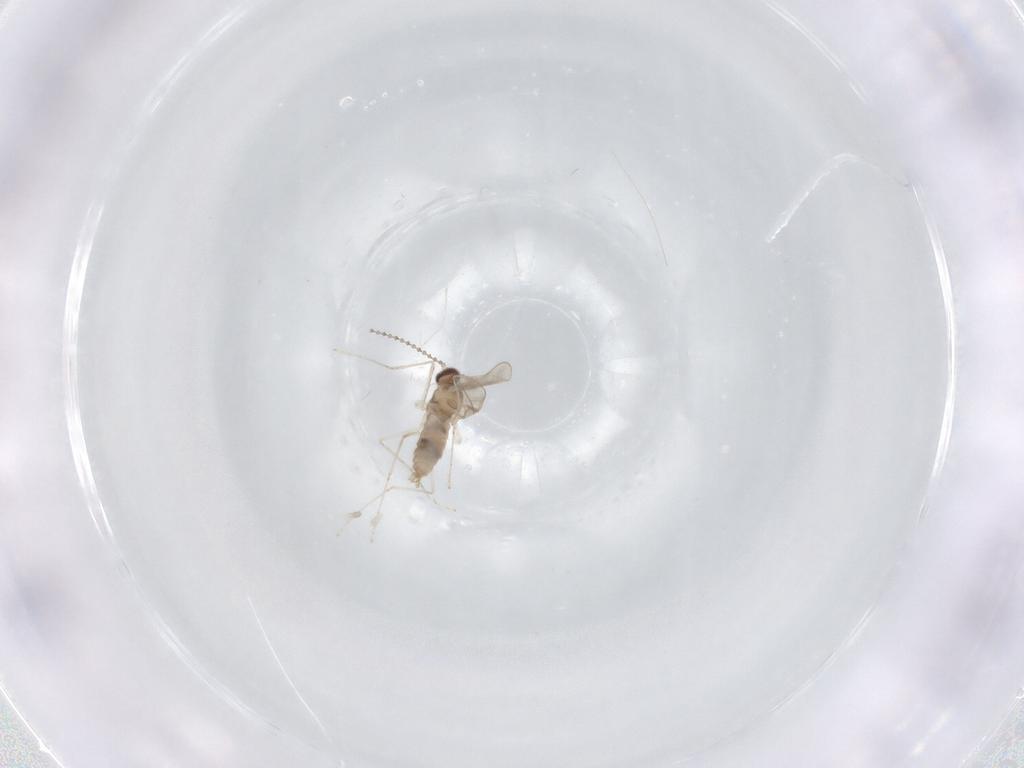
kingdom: Animalia
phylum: Arthropoda
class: Insecta
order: Diptera
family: Cecidomyiidae
